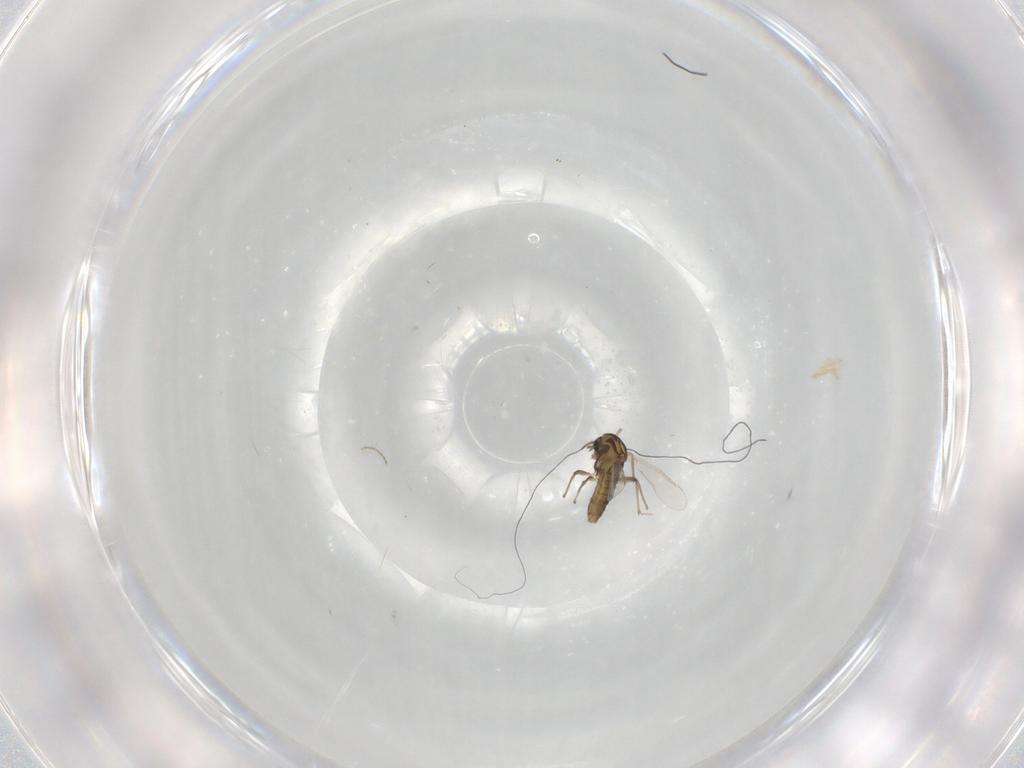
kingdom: Animalia
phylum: Arthropoda
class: Insecta
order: Diptera
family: Chironomidae
